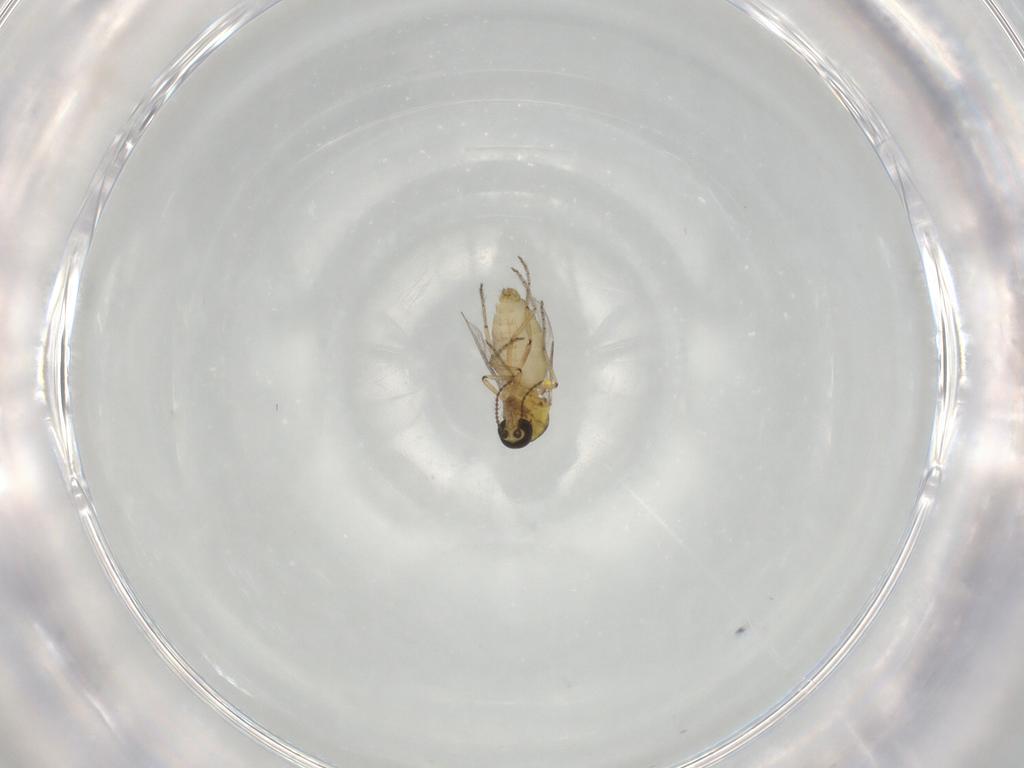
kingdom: Animalia
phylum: Arthropoda
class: Insecta
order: Diptera
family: Ceratopogonidae
